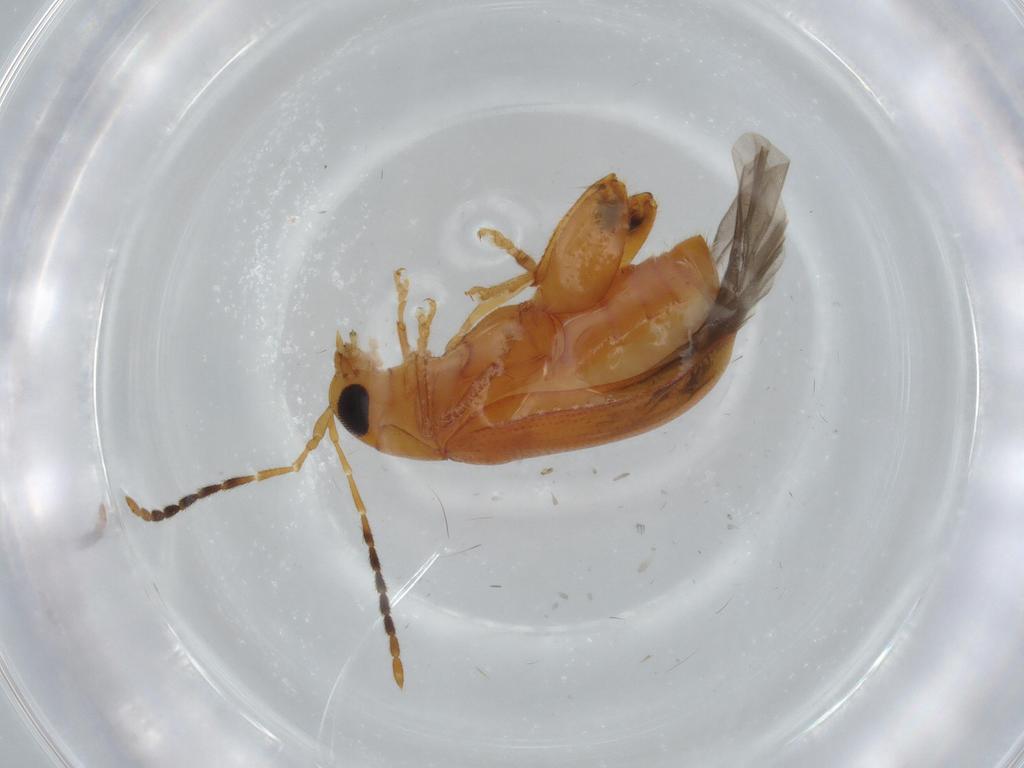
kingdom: Animalia
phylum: Arthropoda
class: Insecta
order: Coleoptera
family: Chrysomelidae
